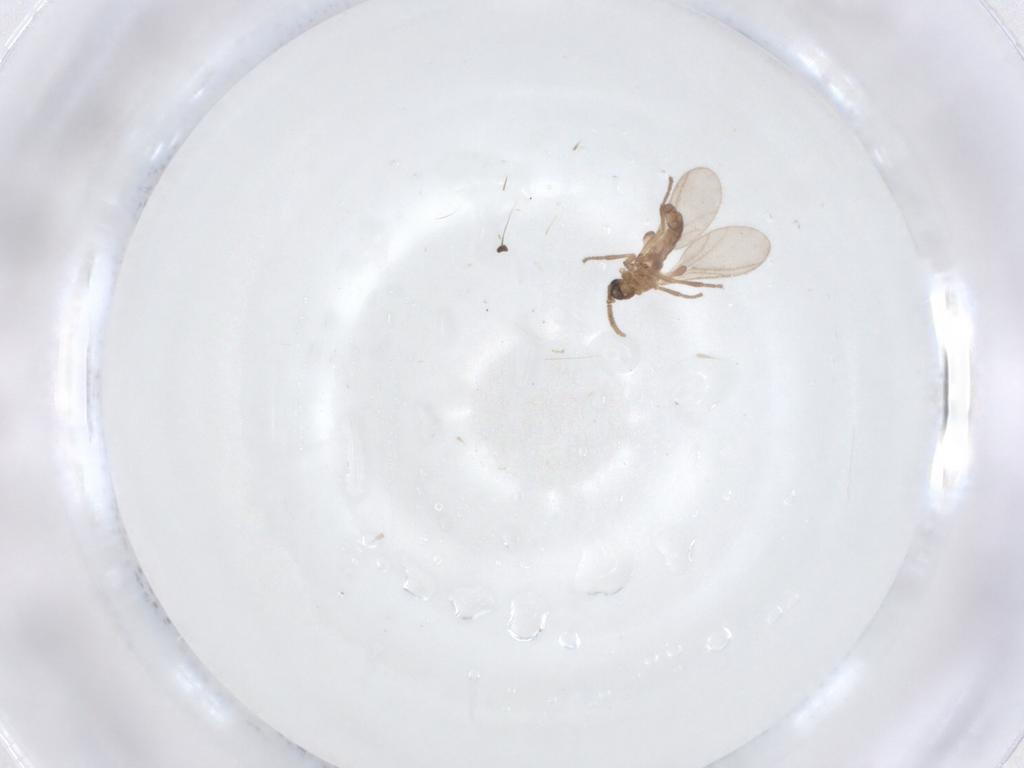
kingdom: Animalia
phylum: Arthropoda
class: Insecta
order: Diptera
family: Sciaridae
